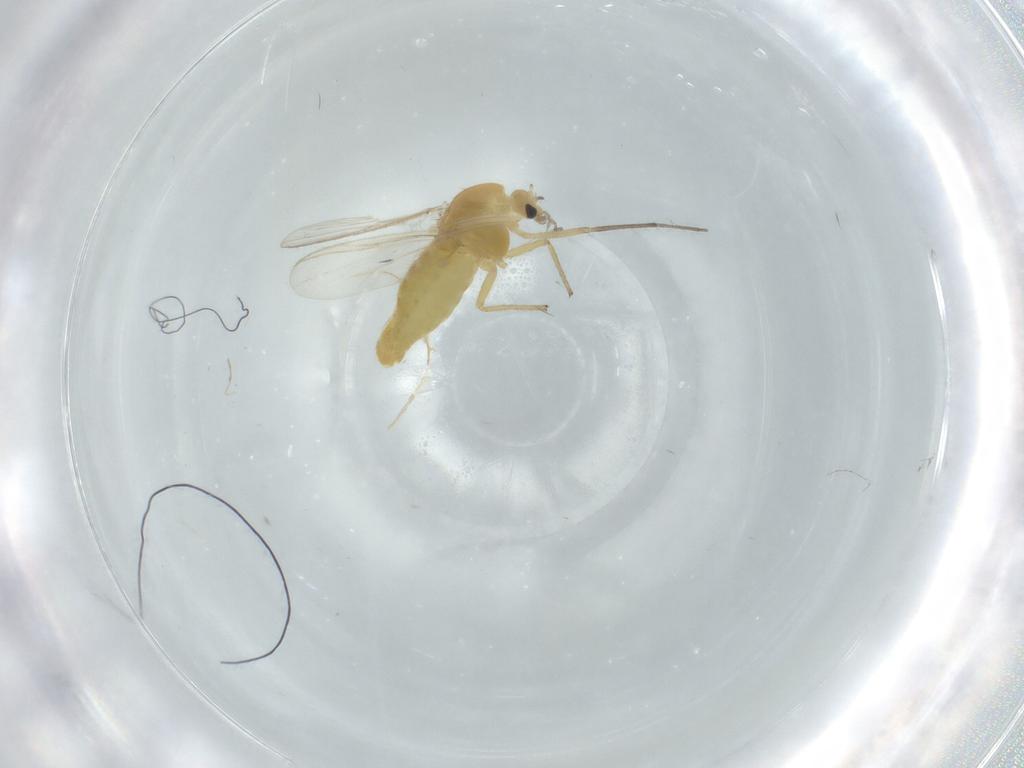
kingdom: Animalia
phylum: Arthropoda
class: Insecta
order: Diptera
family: Chironomidae
